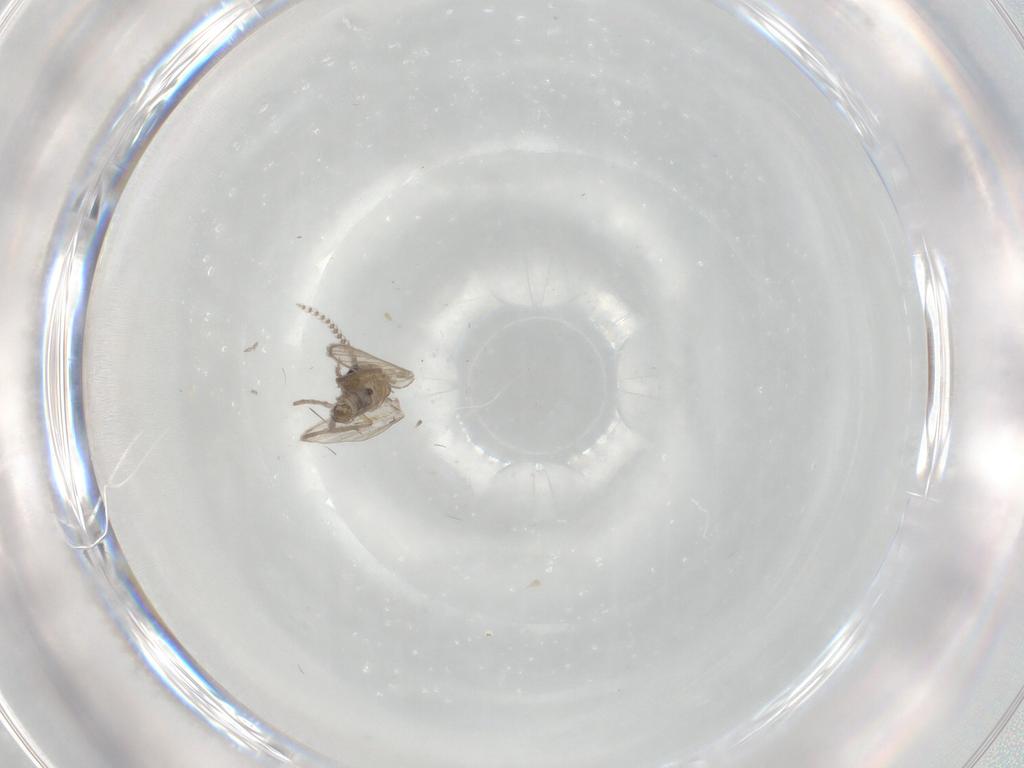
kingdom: Animalia
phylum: Arthropoda
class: Insecta
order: Diptera
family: Psychodidae
